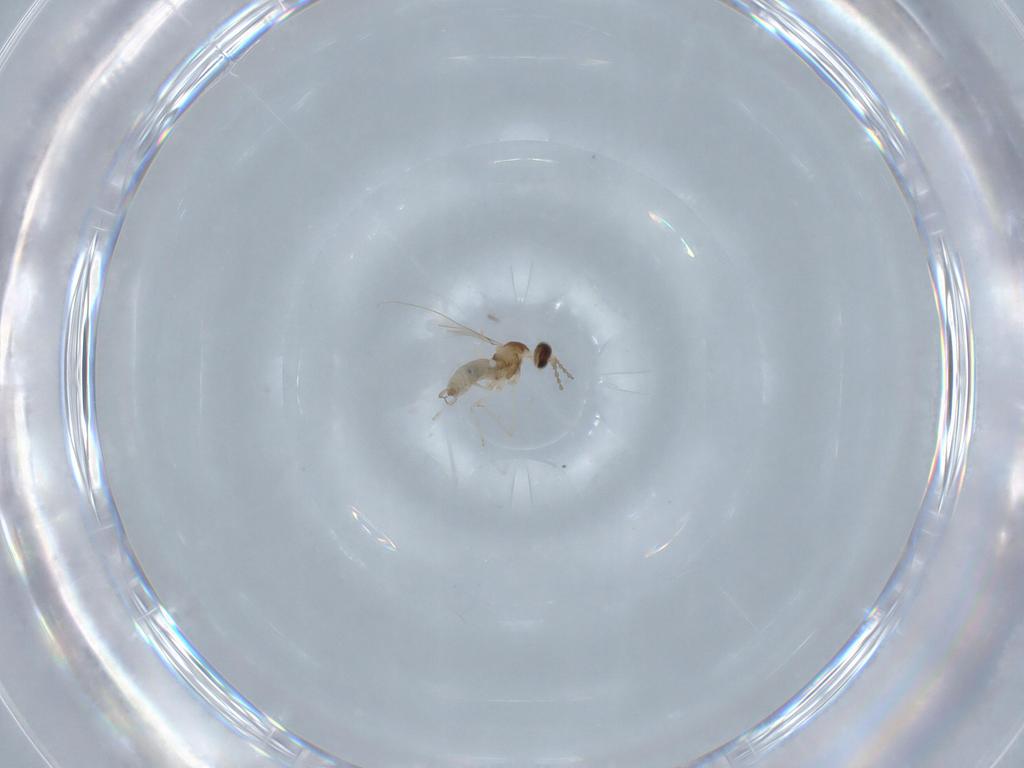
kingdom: Animalia
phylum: Arthropoda
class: Insecta
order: Diptera
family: Cecidomyiidae
